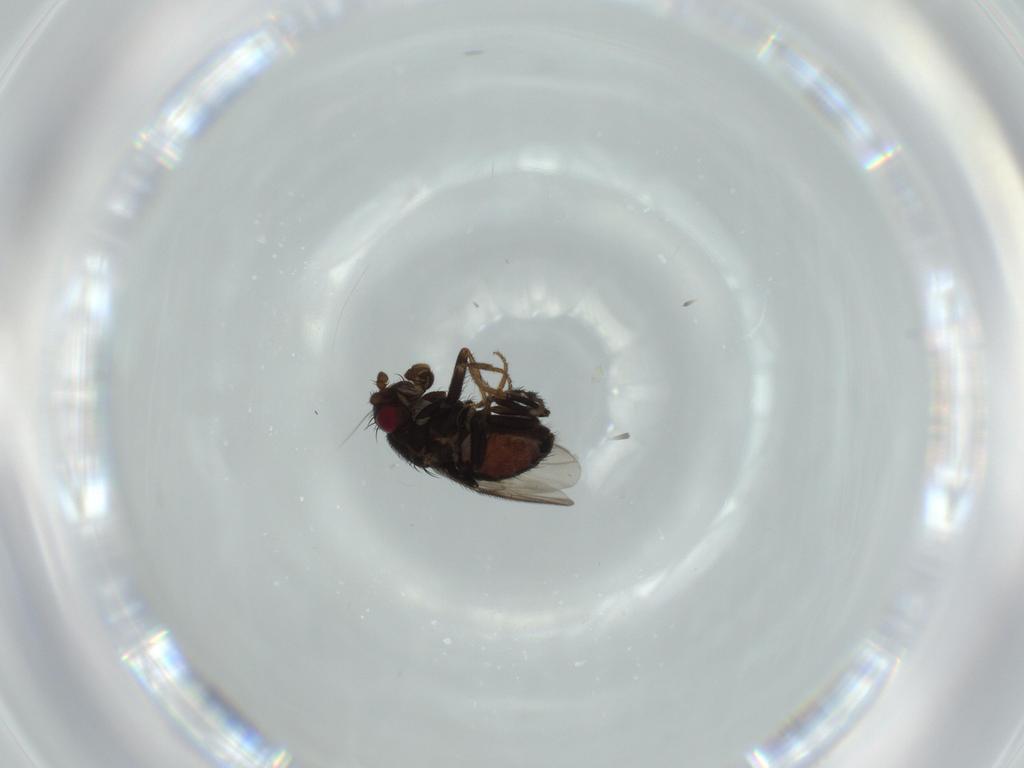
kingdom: Animalia
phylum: Arthropoda
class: Insecta
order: Diptera
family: Sphaeroceridae
